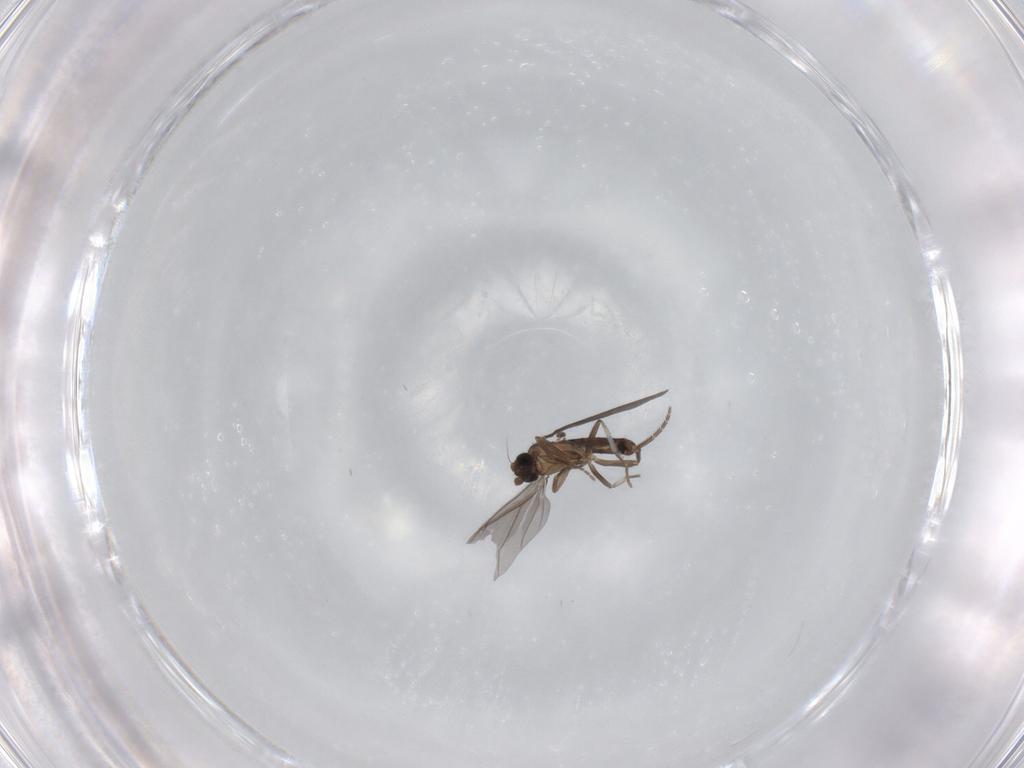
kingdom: Animalia
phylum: Arthropoda
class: Insecta
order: Diptera
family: Phoridae
